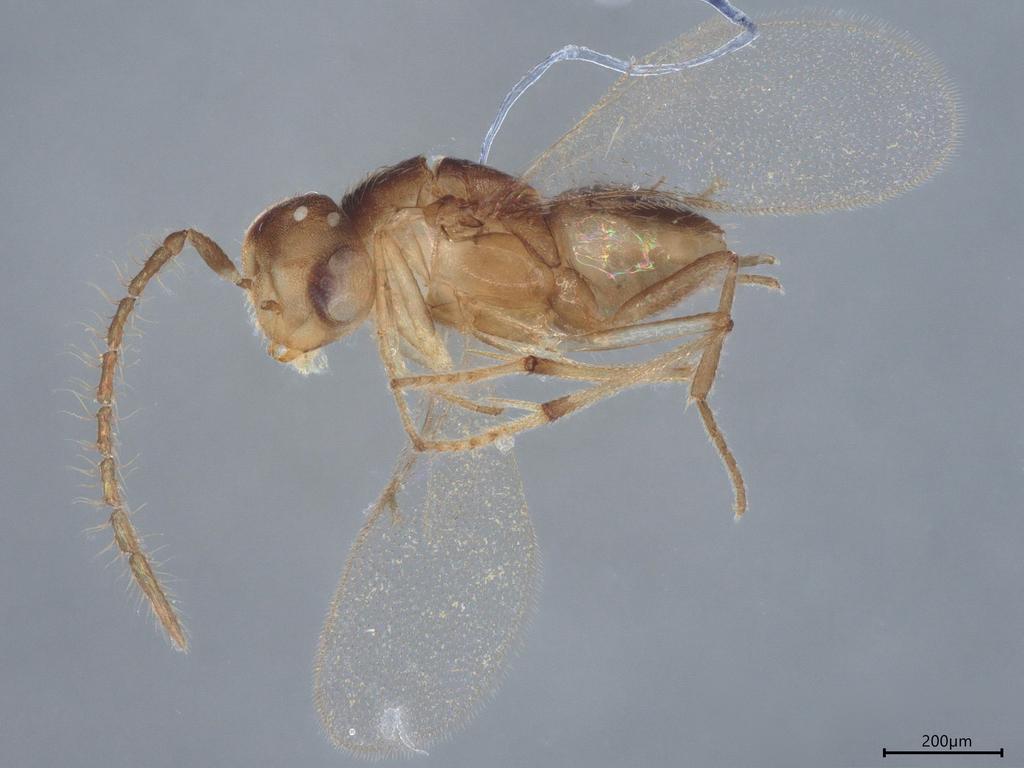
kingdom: Animalia
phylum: Arthropoda
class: Insecta
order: Hymenoptera
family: Encyrtidae
